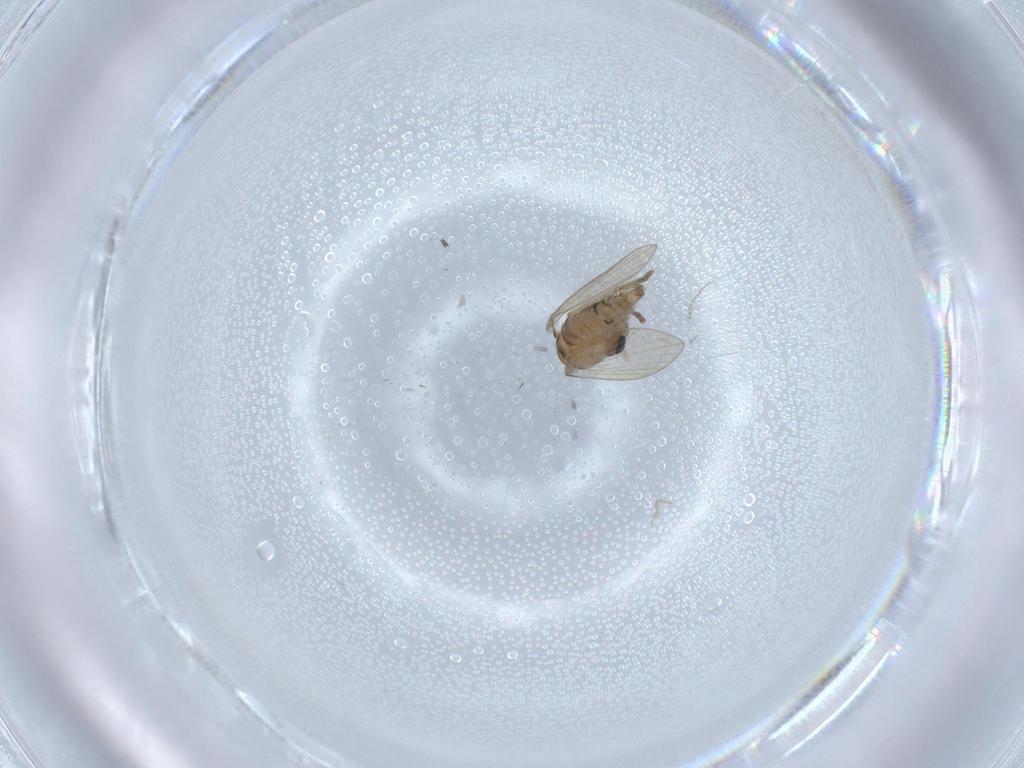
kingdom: Animalia
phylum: Arthropoda
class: Insecta
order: Diptera
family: Psychodidae
